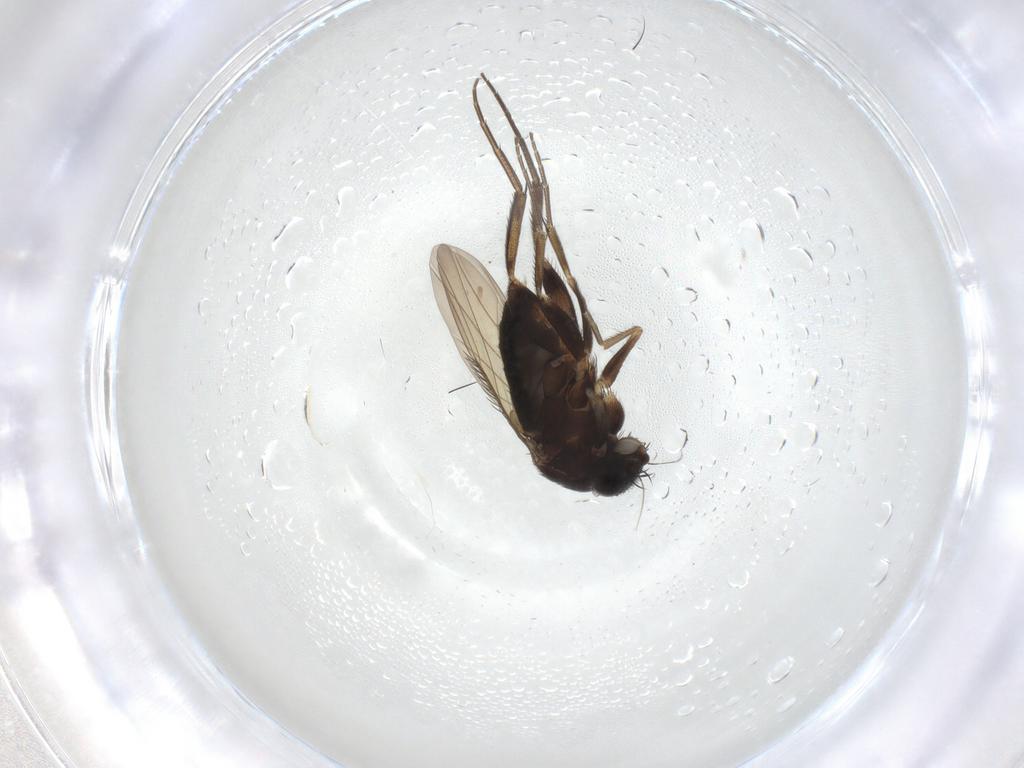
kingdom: Animalia
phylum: Arthropoda
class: Insecta
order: Diptera
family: Phoridae
